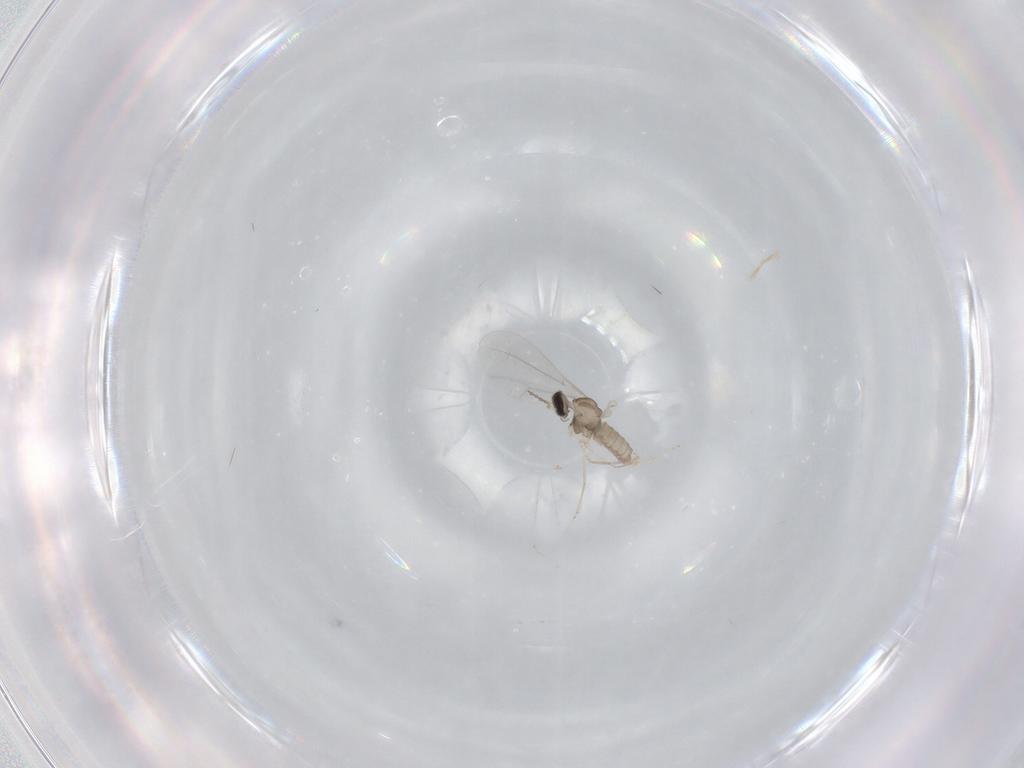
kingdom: Animalia
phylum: Arthropoda
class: Insecta
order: Diptera
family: Cecidomyiidae
